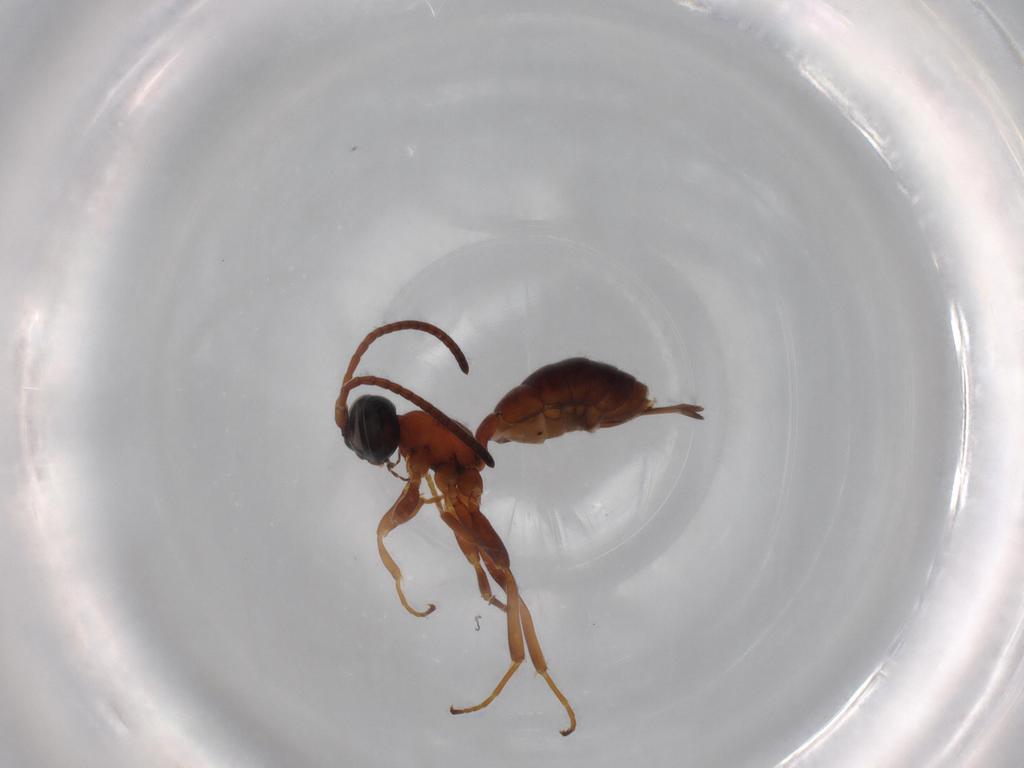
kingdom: Animalia
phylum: Arthropoda
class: Insecta
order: Hymenoptera
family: Ichneumonidae
